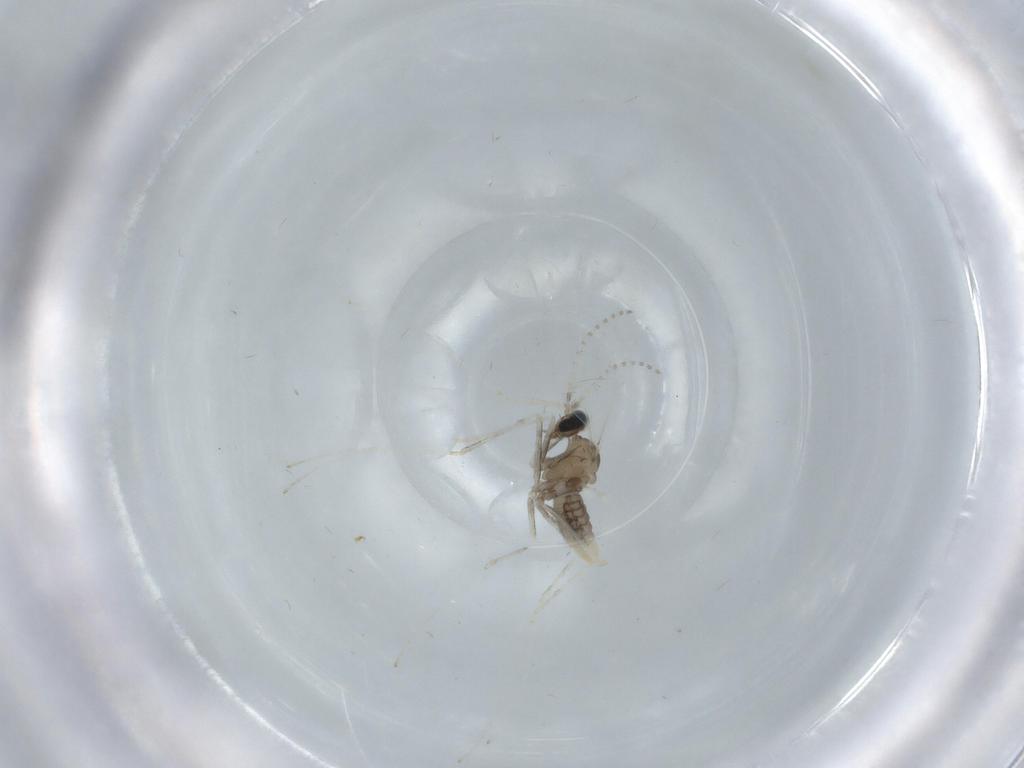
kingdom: Animalia
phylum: Arthropoda
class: Insecta
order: Diptera
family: Cecidomyiidae
